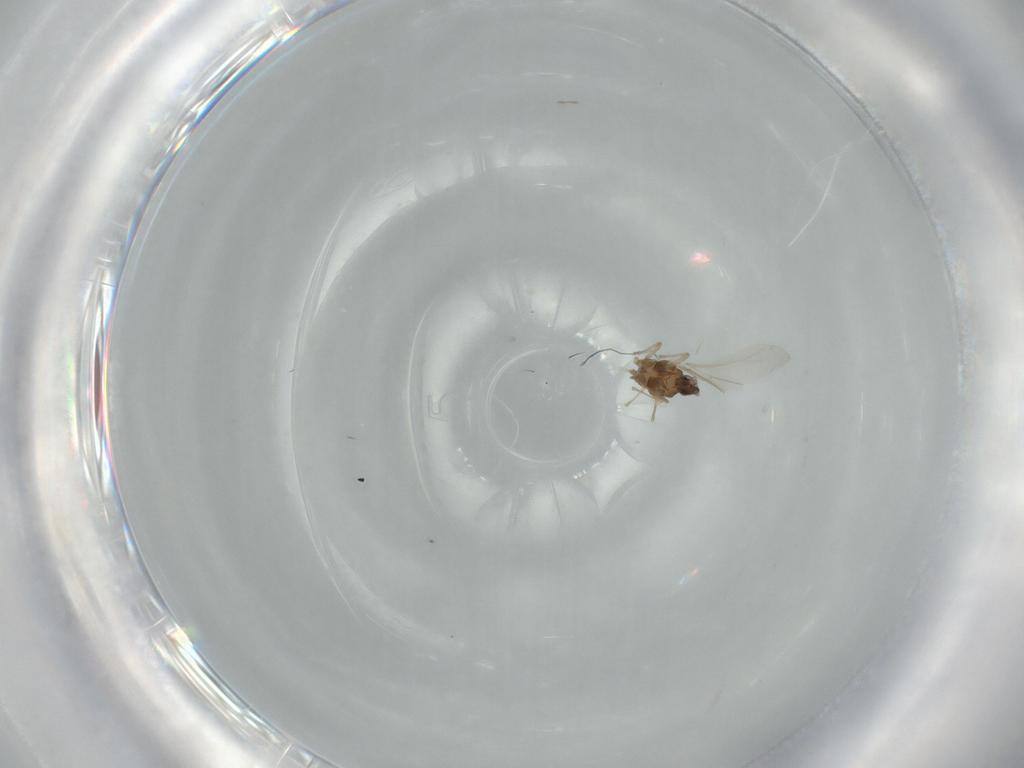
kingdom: Animalia
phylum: Arthropoda
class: Insecta
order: Diptera
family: Cecidomyiidae
